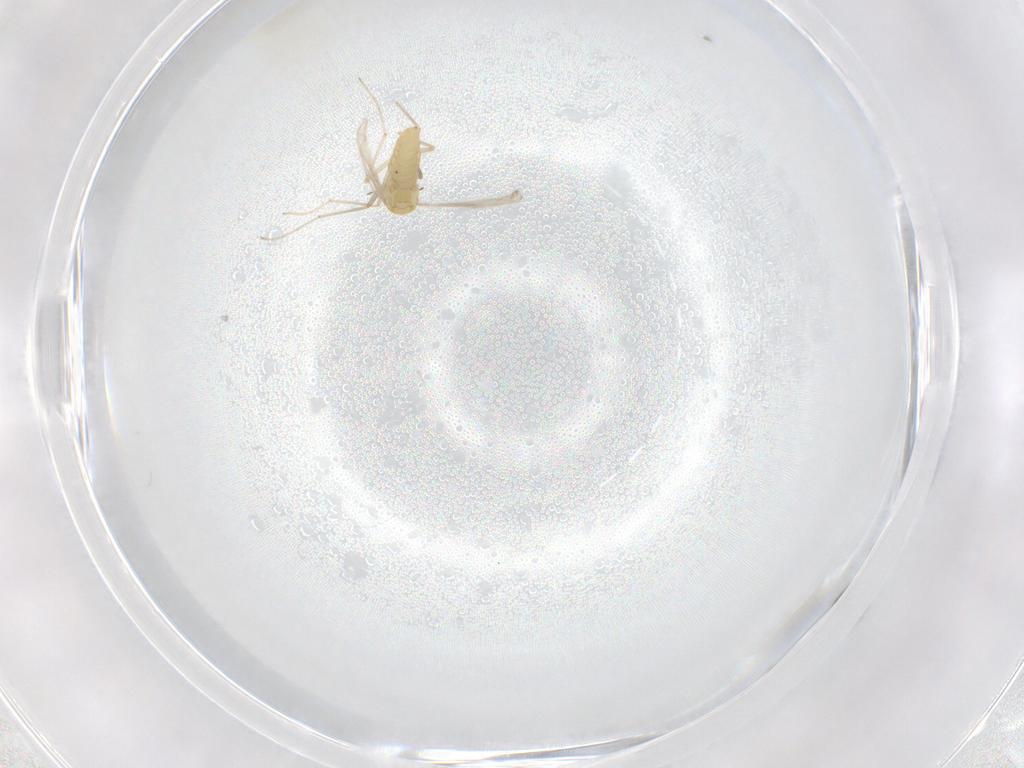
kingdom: Animalia
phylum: Arthropoda
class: Insecta
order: Diptera
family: Chironomidae
